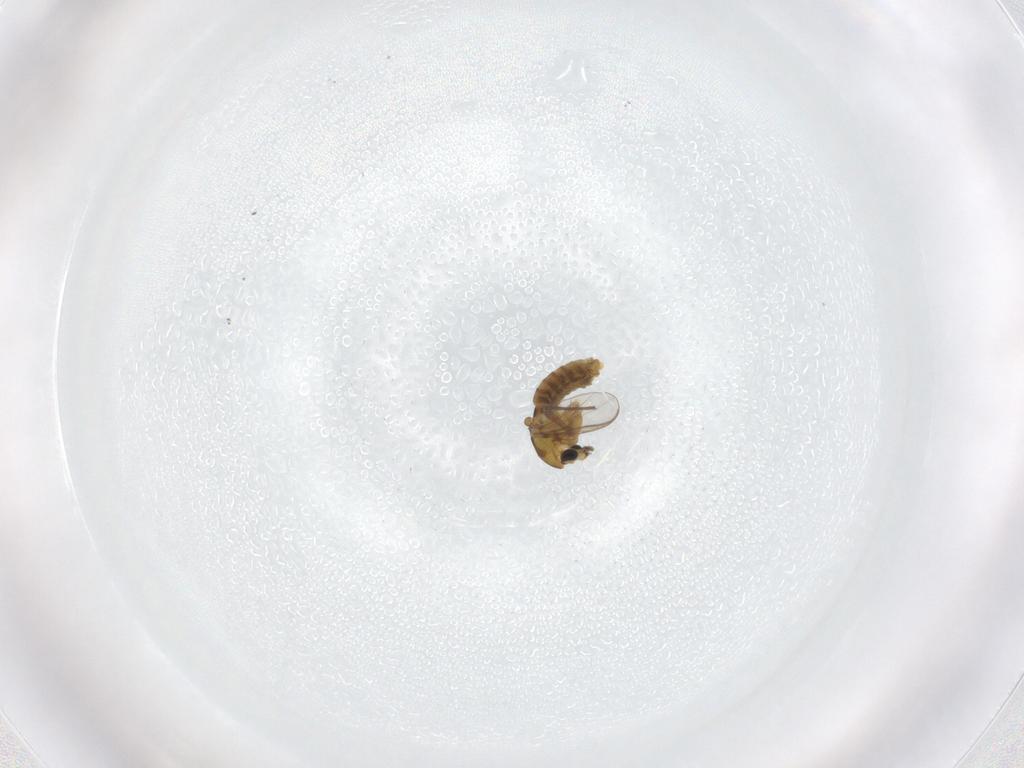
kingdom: Animalia
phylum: Arthropoda
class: Insecta
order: Diptera
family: Chironomidae
